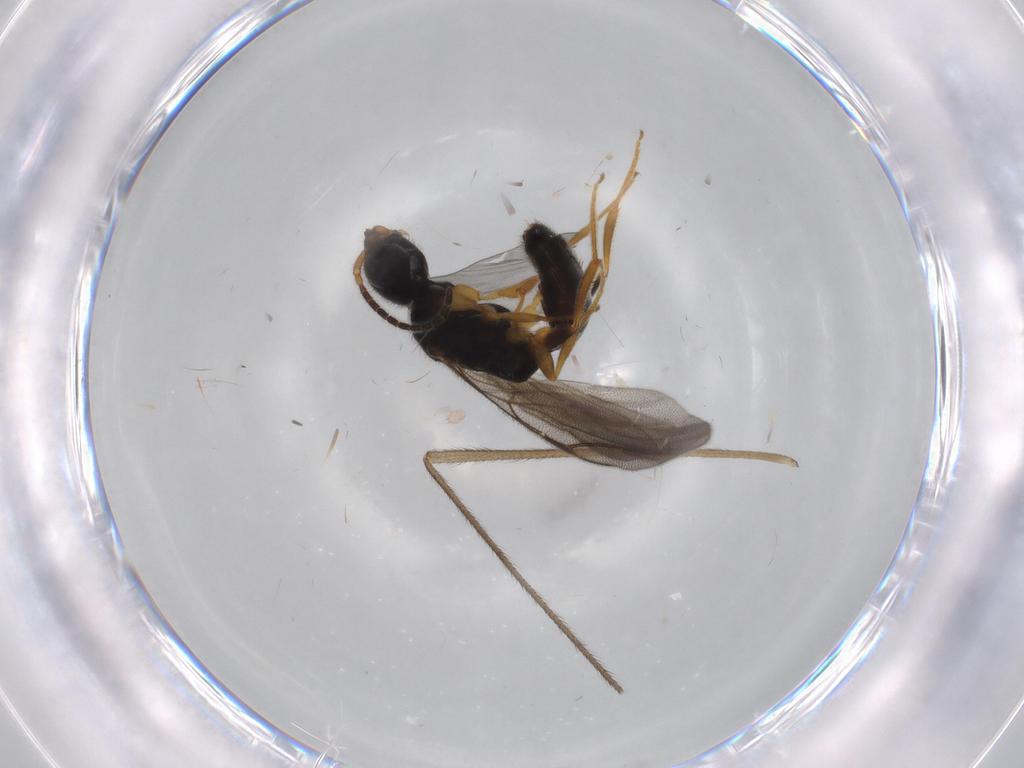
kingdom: Animalia
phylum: Arthropoda
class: Insecta
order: Hymenoptera
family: Bethylidae
